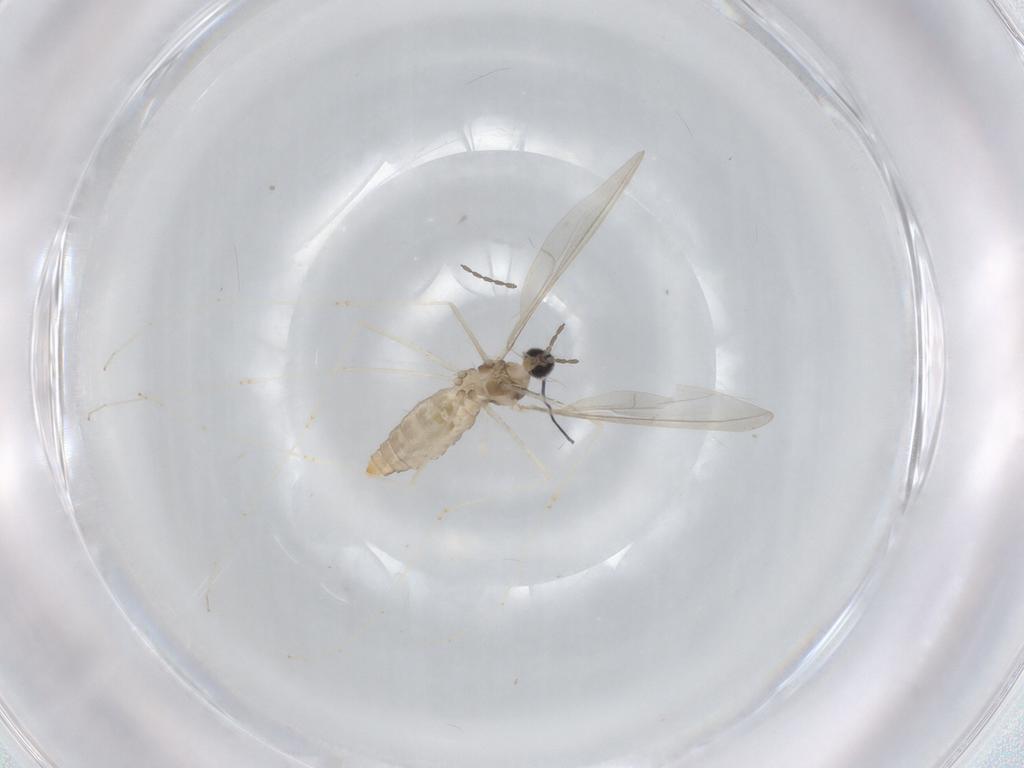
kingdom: Animalia
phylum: Arthropoda
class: Insecta
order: Diptera
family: Cecidomyiidae
